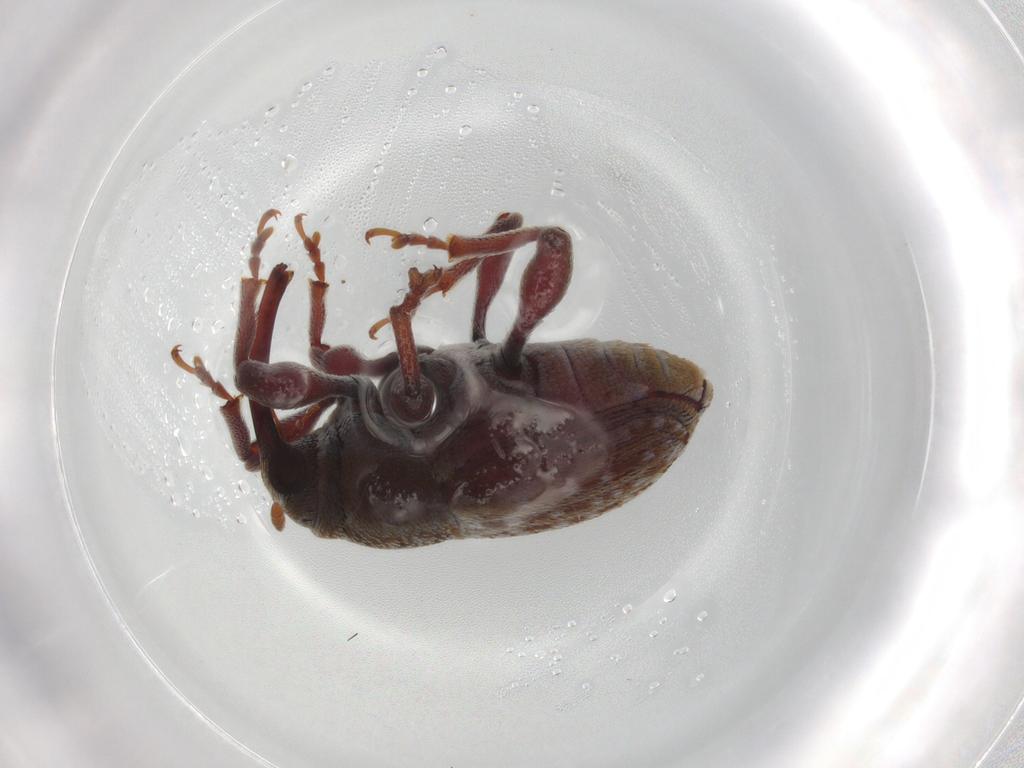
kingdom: Animalia
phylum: Arthropoda
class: Insecta
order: Coleoptera
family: Curculionidae
